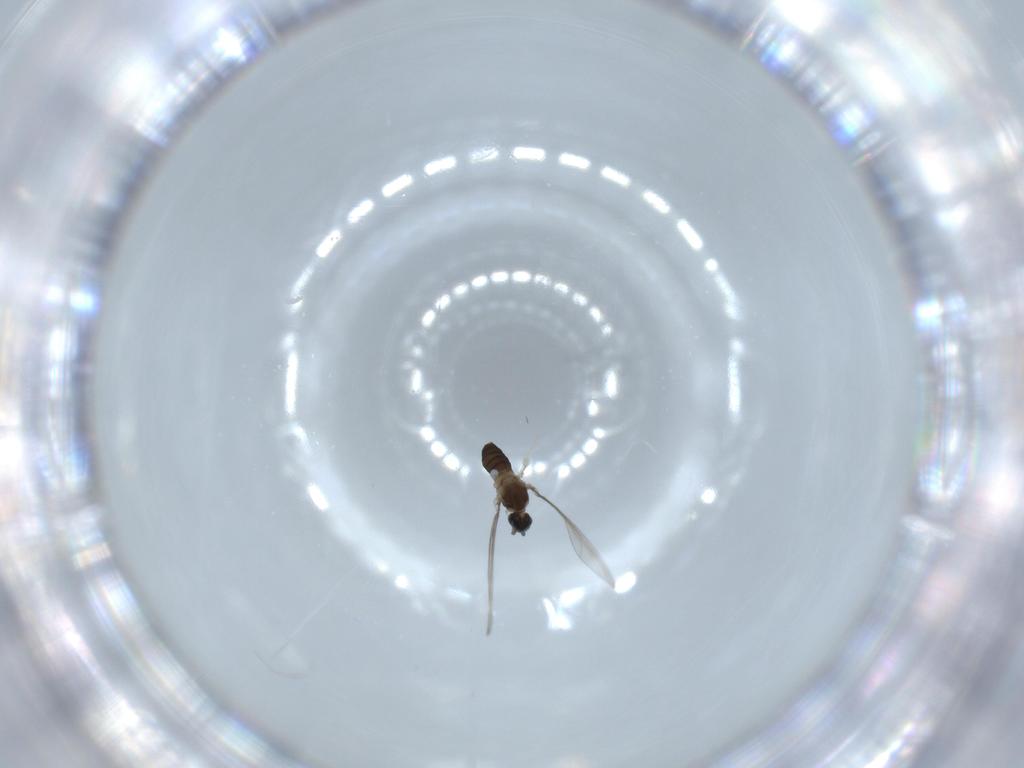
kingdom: Animalia
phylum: Arthropoda
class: Insecta
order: Diptera
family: Cecidomyiidae
